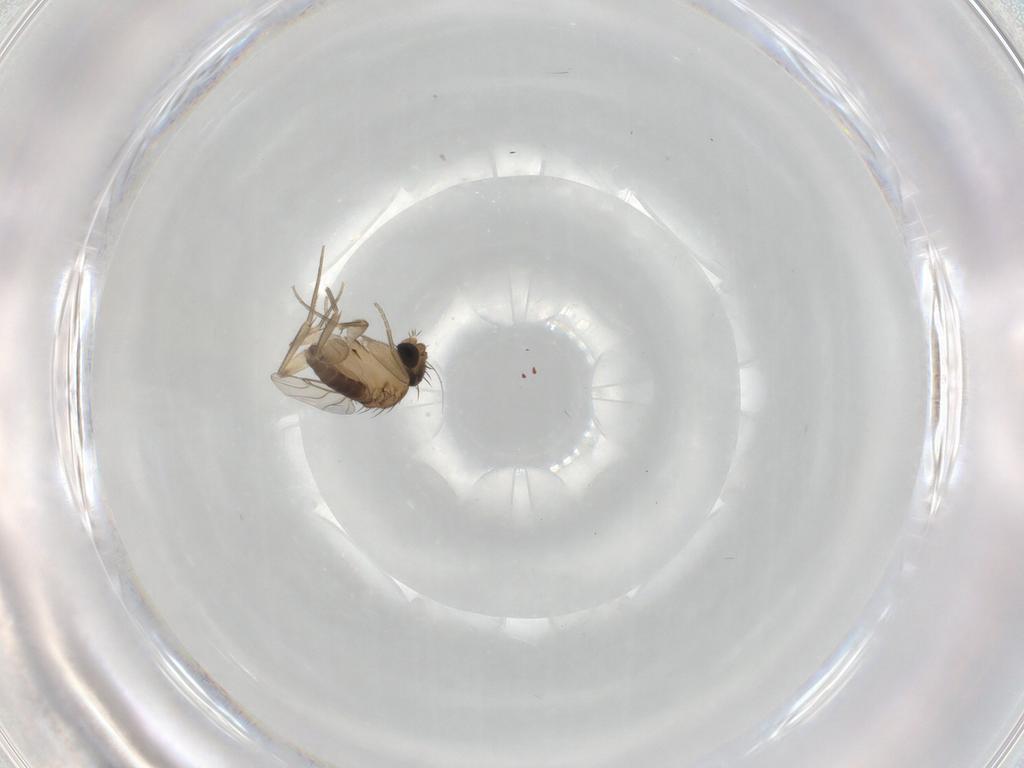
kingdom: Animalia
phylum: Arthropoda
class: Insecta
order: Diptera
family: Phoridae
